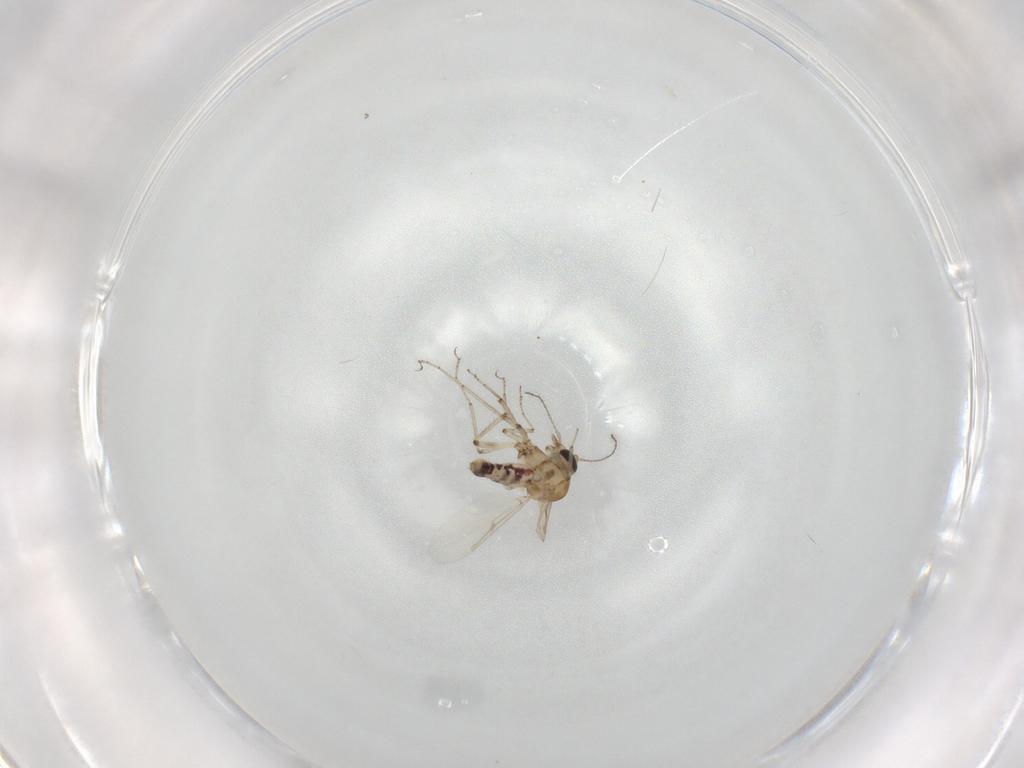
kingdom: Animalia
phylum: Arthropoda
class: Insecta
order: Diptera
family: Ceratopogonidae
